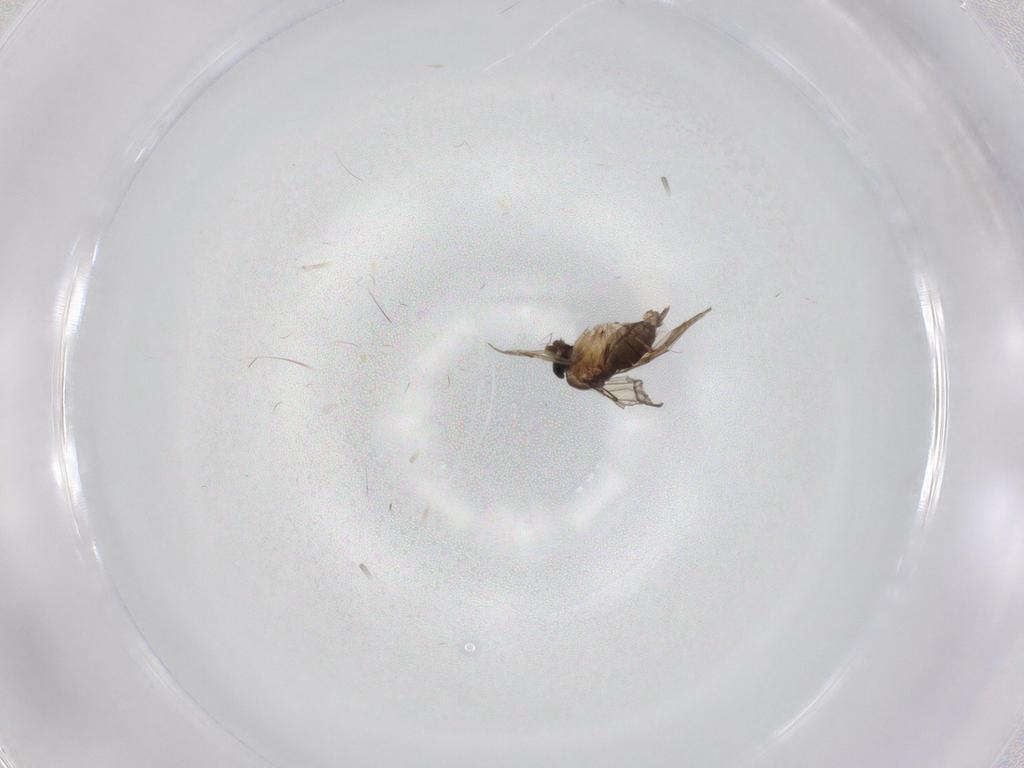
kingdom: Animalia
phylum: Arthropoda
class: Insecta
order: Diptera
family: Phoridae
